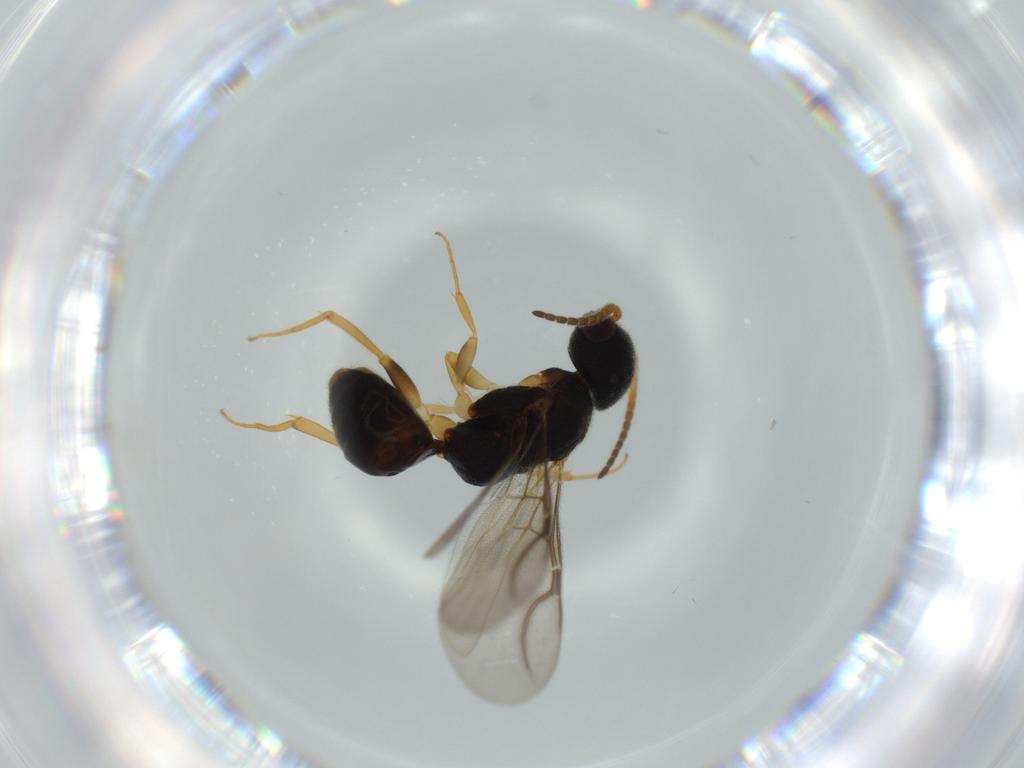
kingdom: Animalia
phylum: Arthropoda
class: Insecta
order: Hymenoptera
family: Bethylidae
